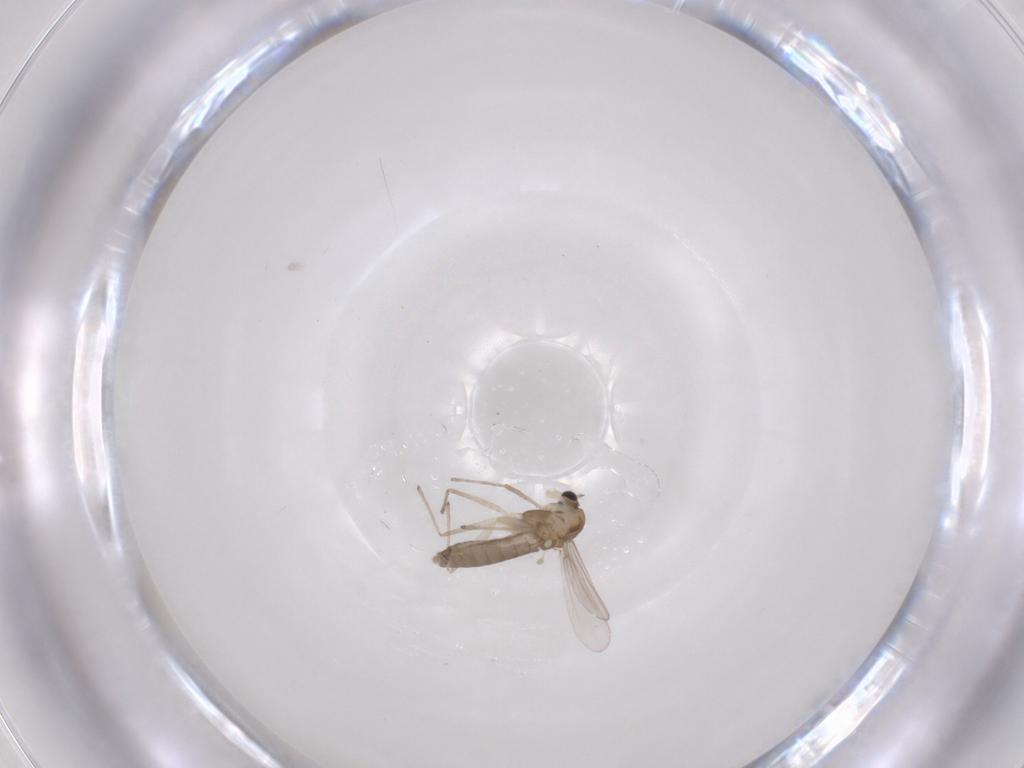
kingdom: Animalia
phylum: Arthropoda
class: Insecta
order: Diptera
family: Chironomidae
